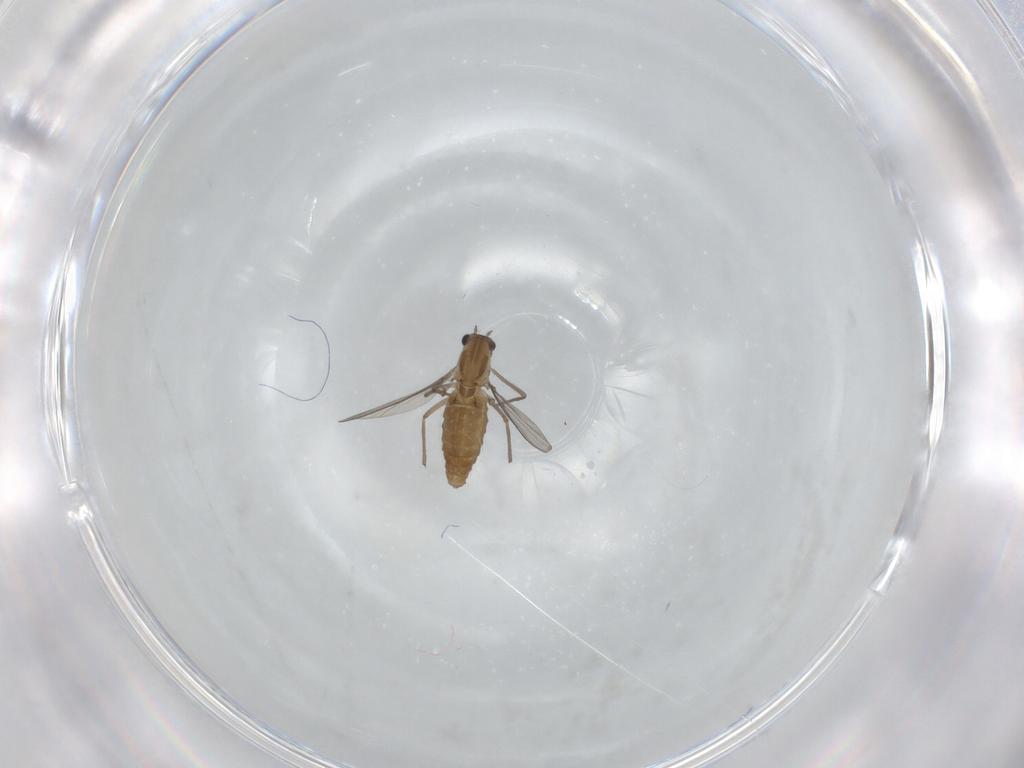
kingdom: Animalia
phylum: Arthropoda
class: Insecta
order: Diptera
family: Chironomidae
